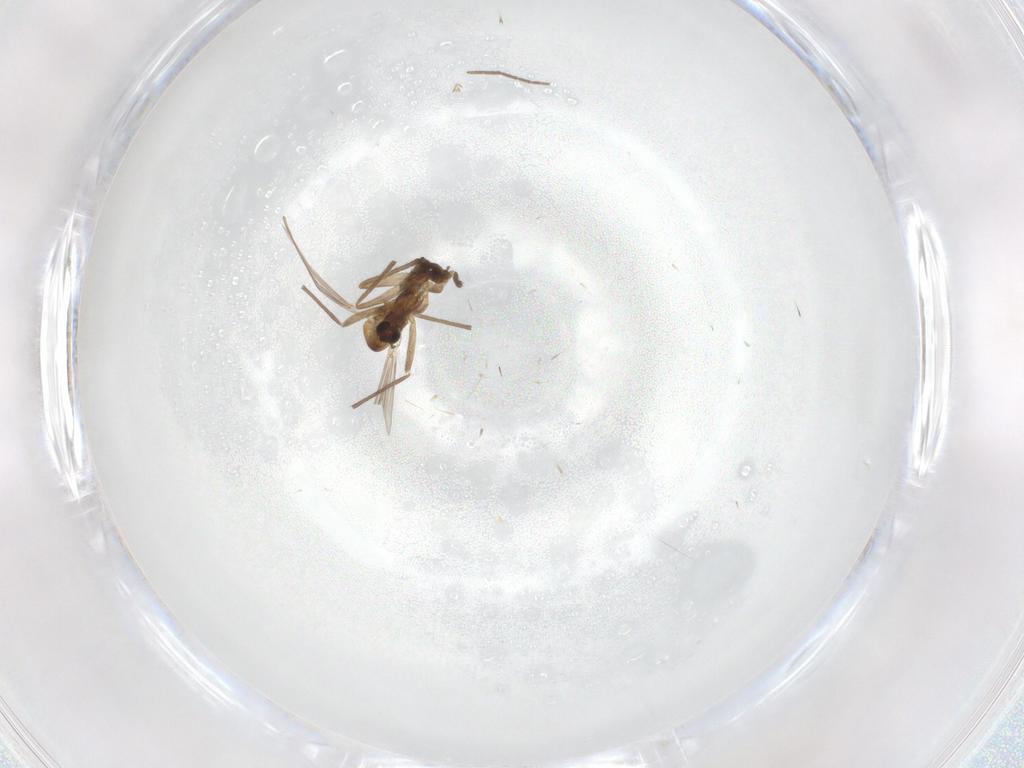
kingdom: Animalia
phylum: Arthropoda
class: Insecta
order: Diptera
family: Chironomidae
